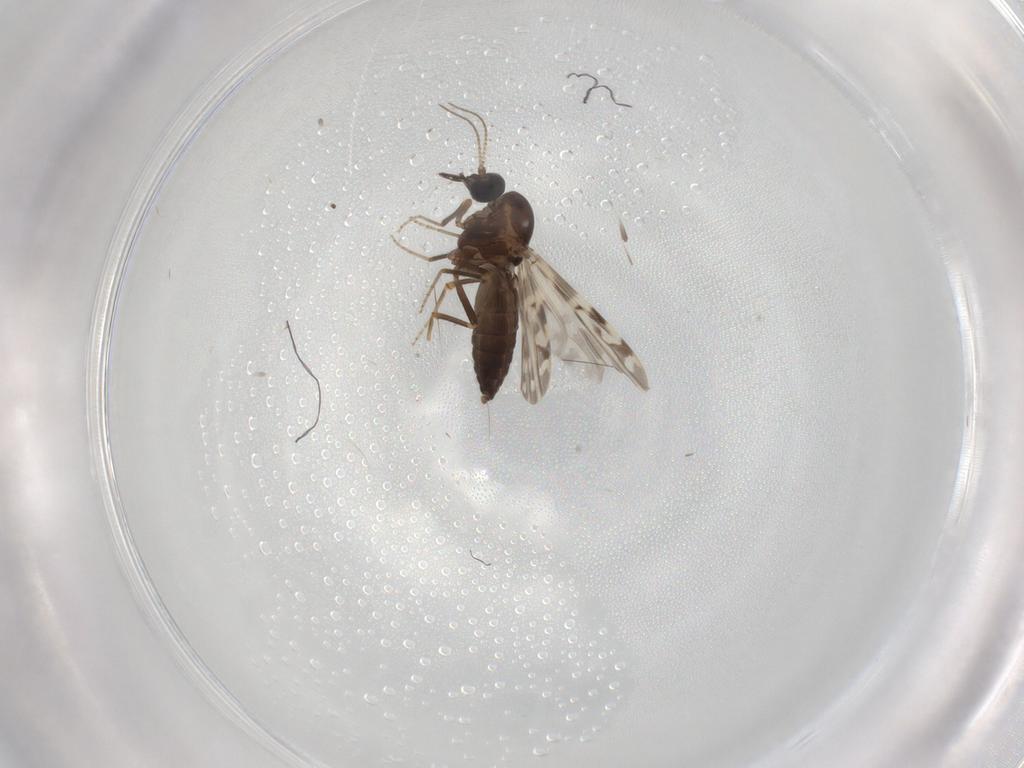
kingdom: Animalia
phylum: Arthropoda
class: Insecta
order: Diptera
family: Ceratopogonidae
